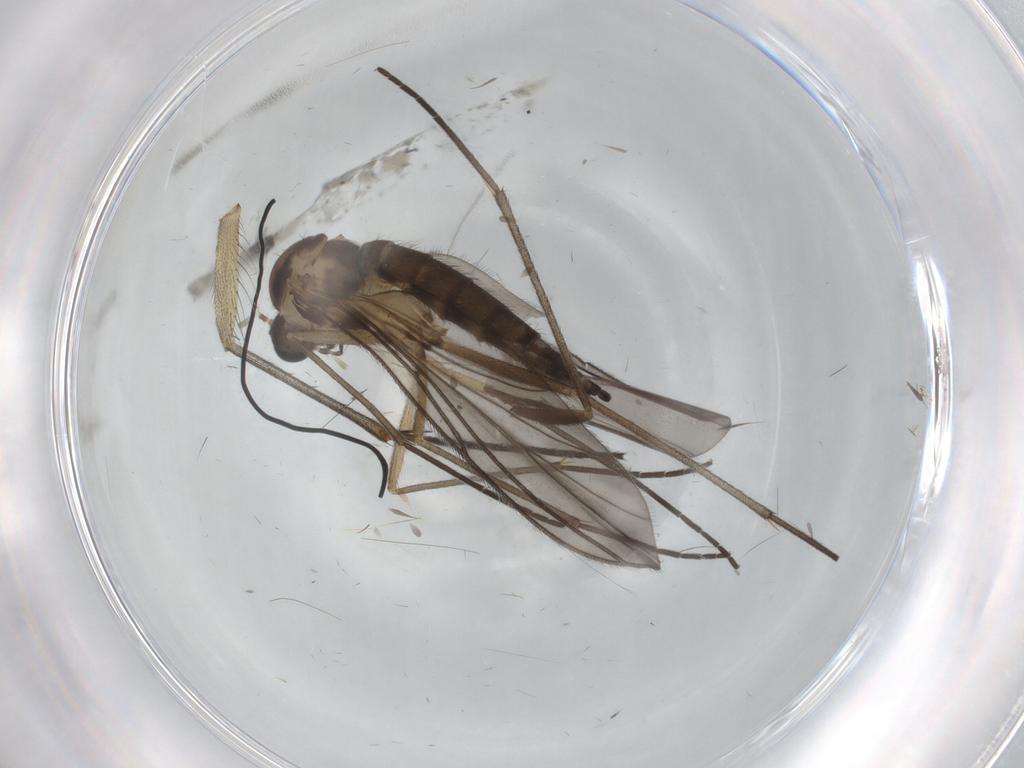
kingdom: Animalia
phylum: Arthropoda
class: Insecta
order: Diptera
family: Sciaridae
